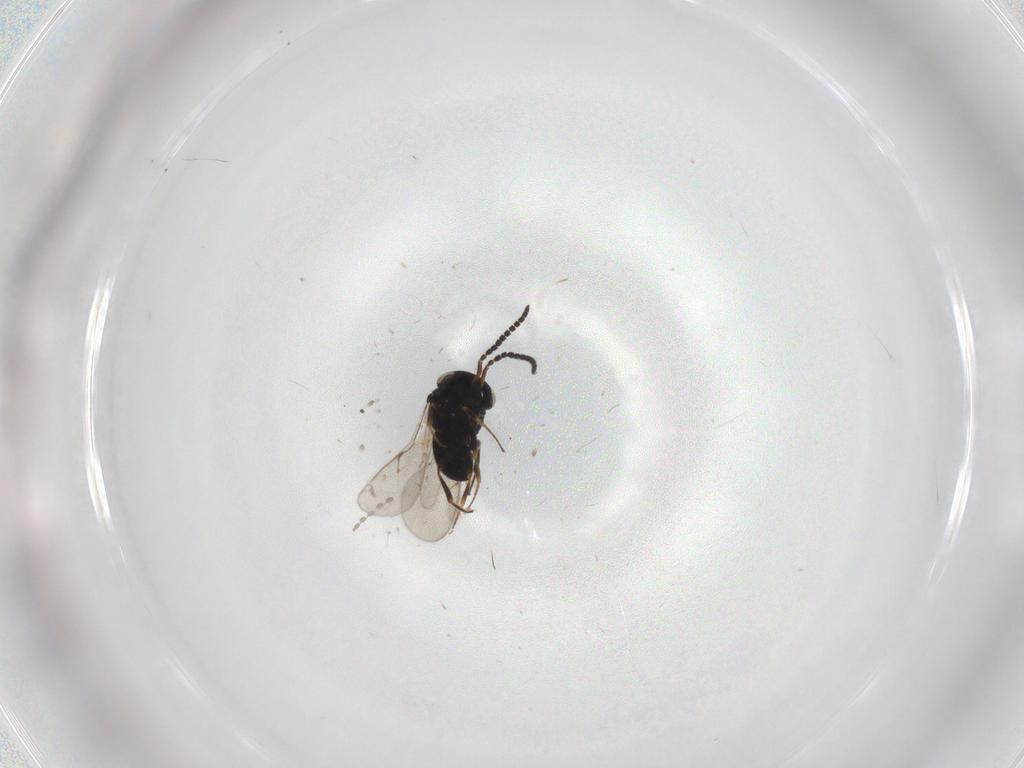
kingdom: Animalia
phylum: Arthropoda
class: Insecta
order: Hymenoptera
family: Scelionidae
